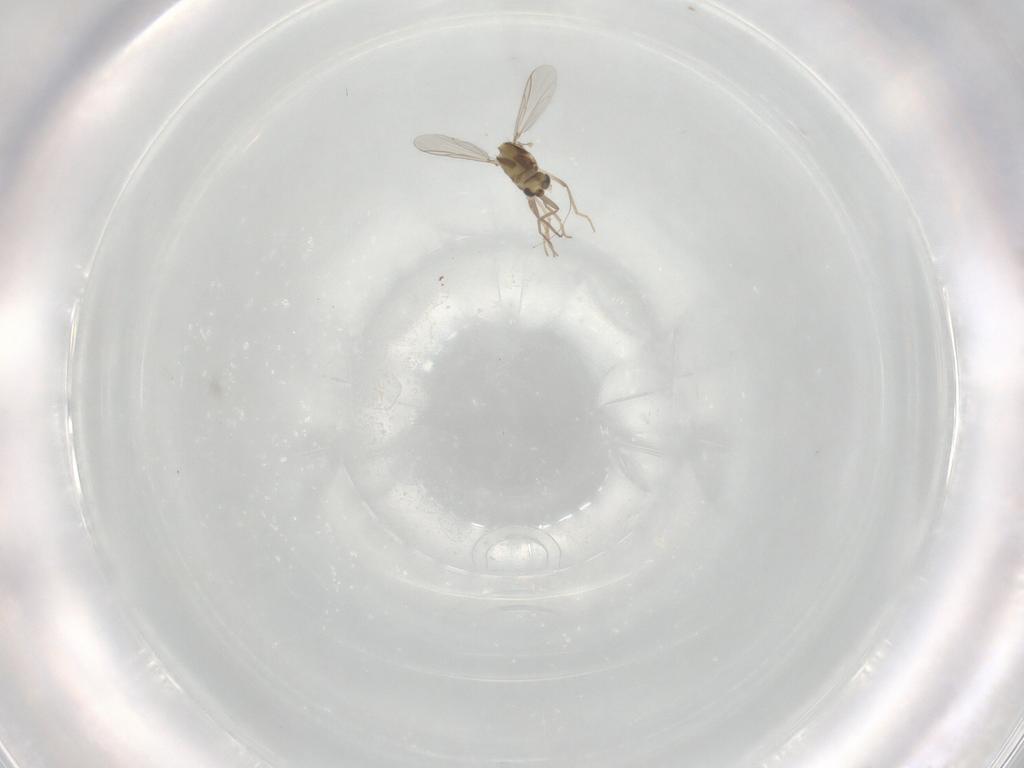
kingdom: Animalia
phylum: Arthropoda
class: Insecta
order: Diptera
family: Chironomidae
